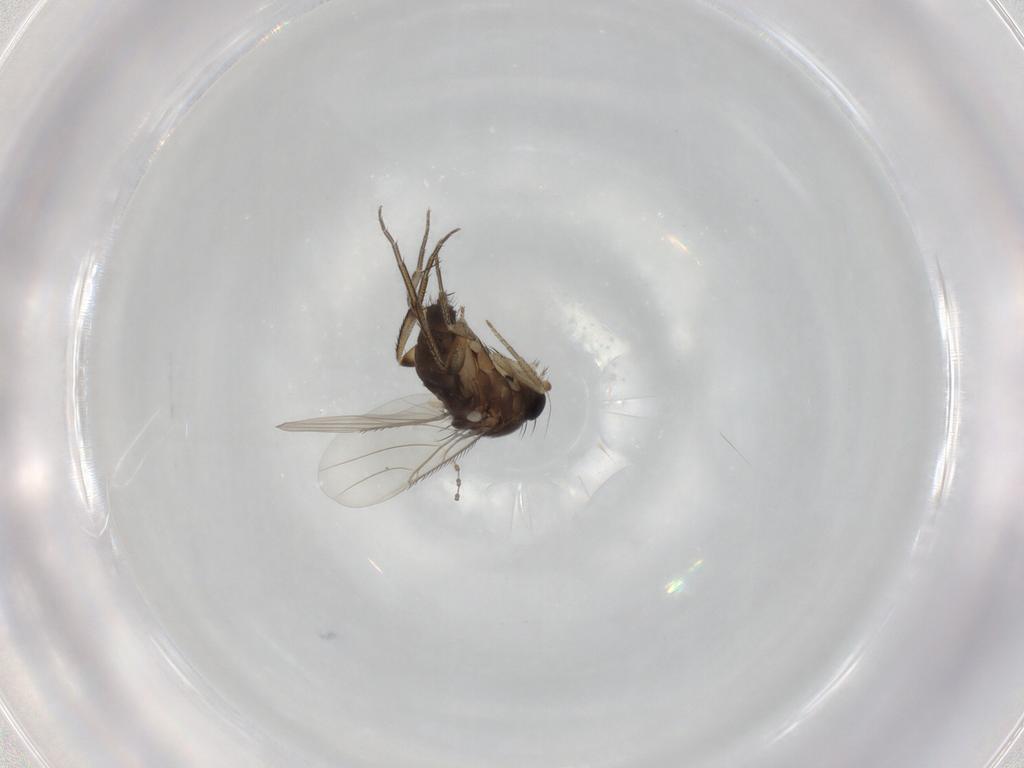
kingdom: Animalia
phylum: Arthropoda
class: Insecta
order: Diptera
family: Phoridae
